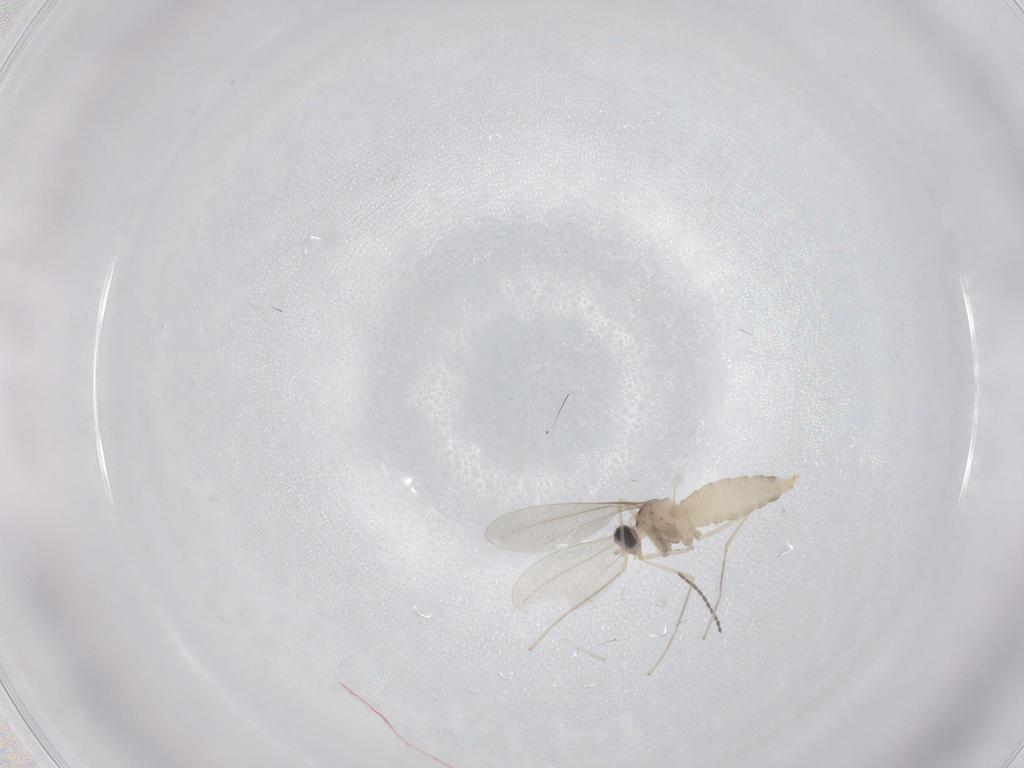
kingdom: Animalia
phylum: Arthropoda
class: Insecta
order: Diptera
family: Cecidomyiidae
